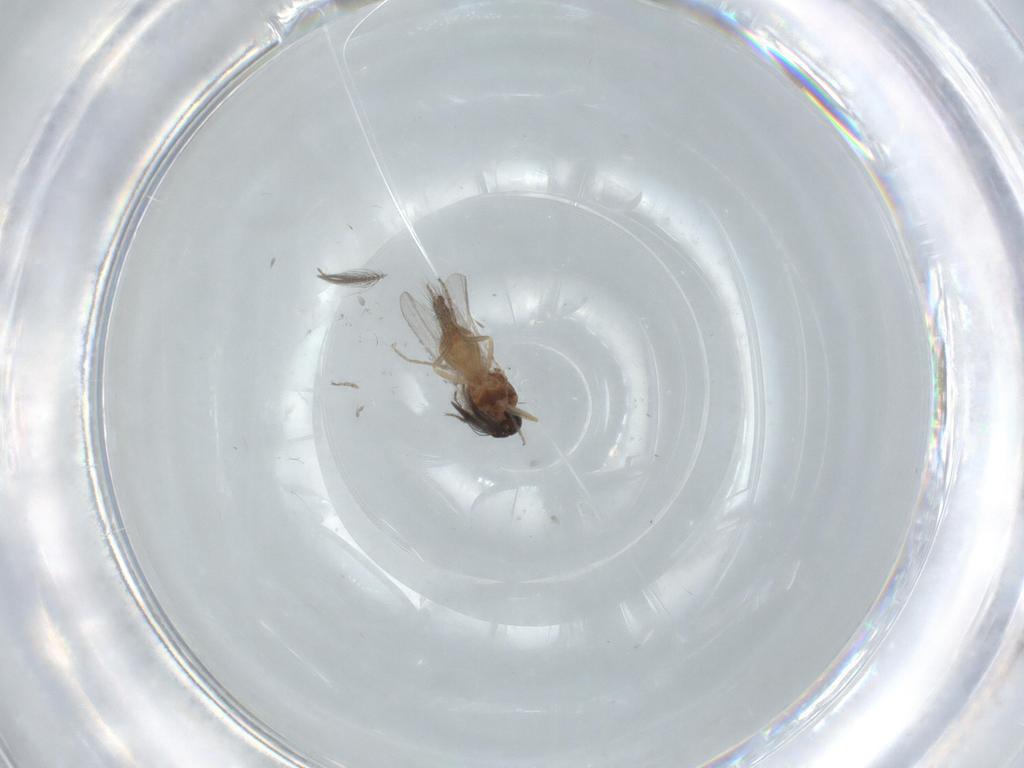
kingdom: Animalia
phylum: Arthropoda
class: Insecta
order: Diptera
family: Ceratopogonidae
